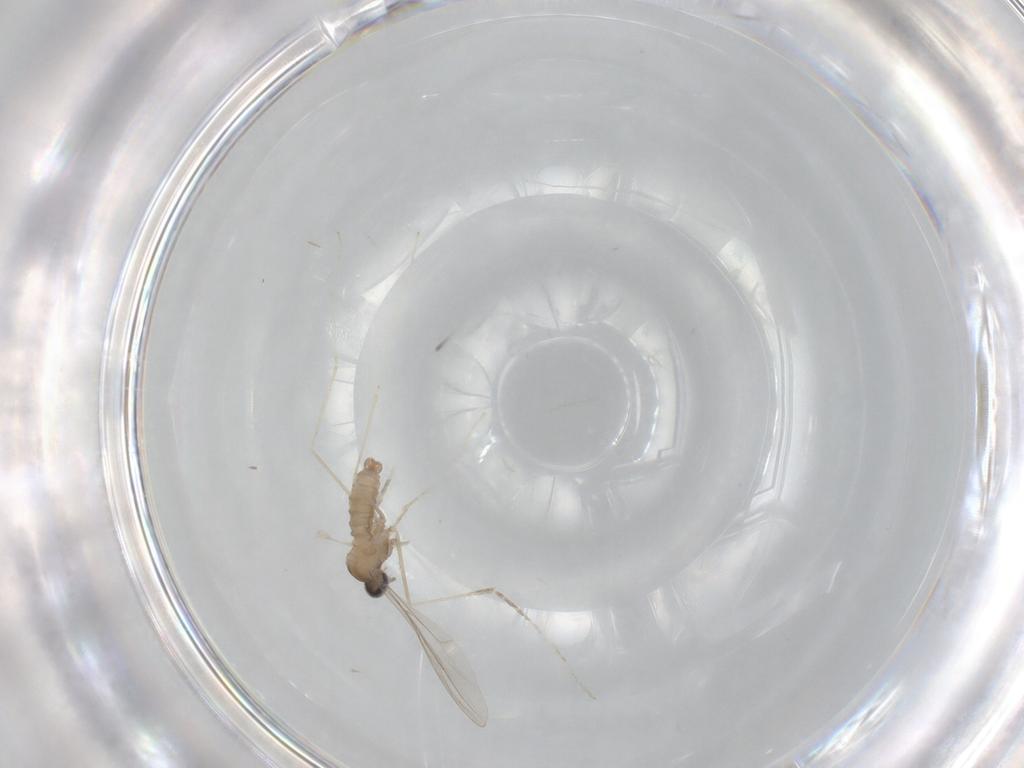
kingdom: Animalia
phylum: Arthropoda
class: Insecta
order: Diptera
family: Cecidomyiidae
